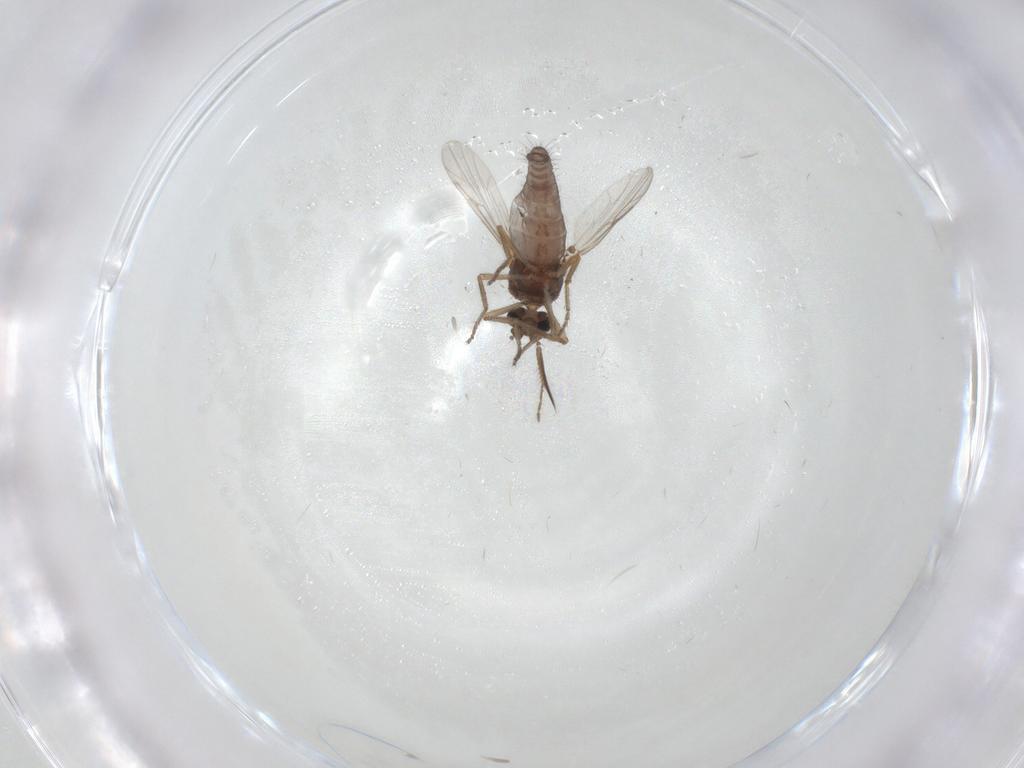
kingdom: Animalia
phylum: Arthropoda
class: Insecta
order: Diptera
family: Ceratopogonidae
